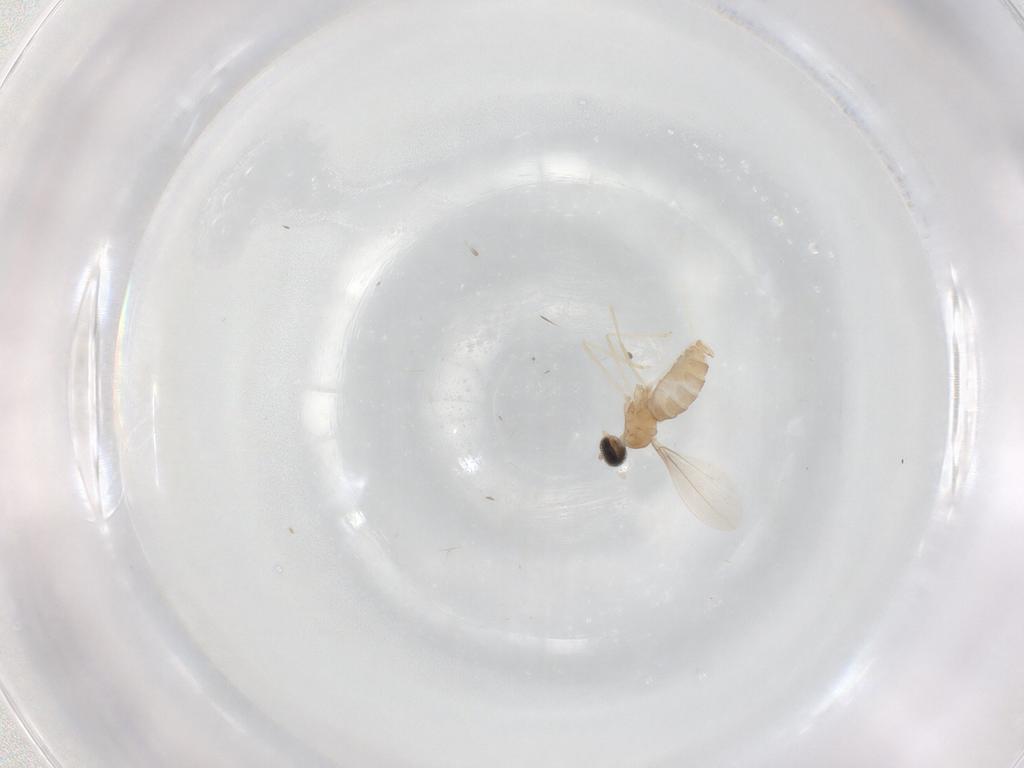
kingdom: Animalia
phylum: Arthropoda
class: Insecta
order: Diptera
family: Cecidomyiidae
